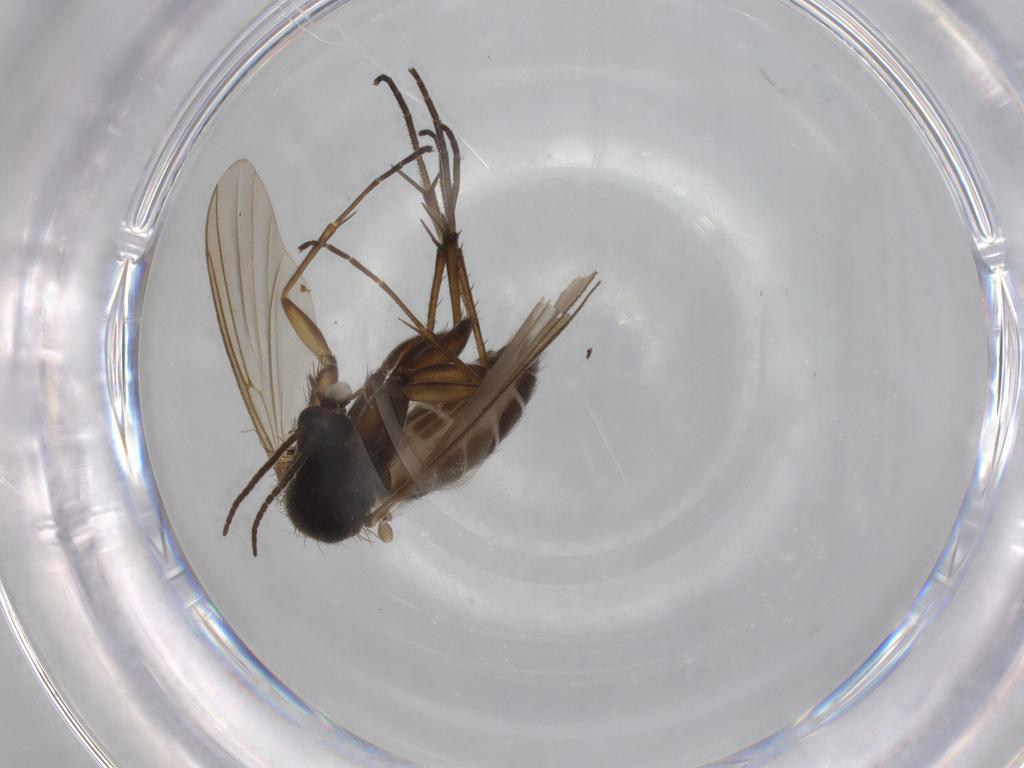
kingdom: Animalia
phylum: Arthropoda
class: Insecta
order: Diptera
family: Mycetophilidae
